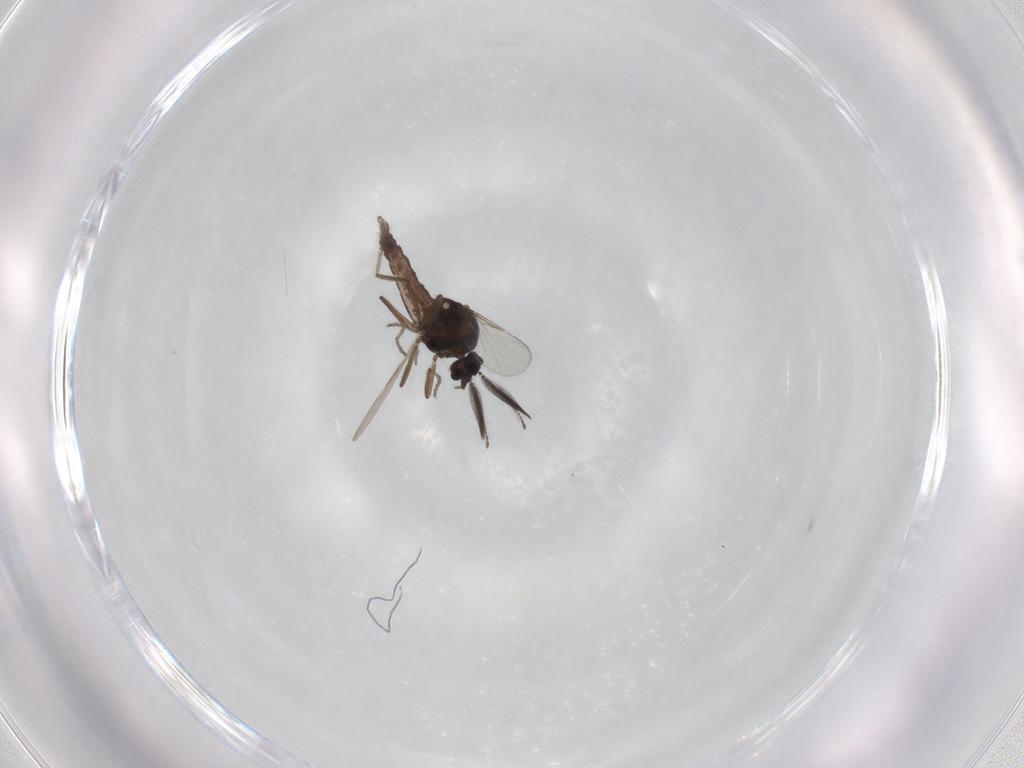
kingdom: Animalia
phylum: Arthropoda
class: Insecta
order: Diptera
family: Ceratopogonidae
